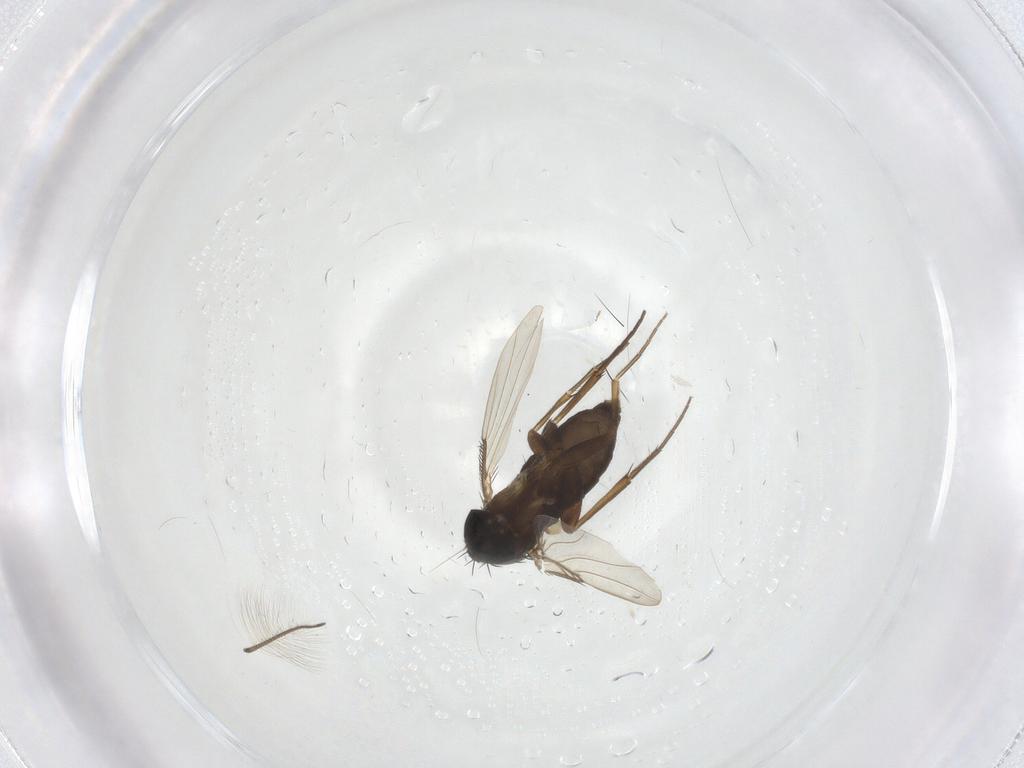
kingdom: Animalia
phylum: Arthropoda
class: Insecta
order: Diptera
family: Phoridae
